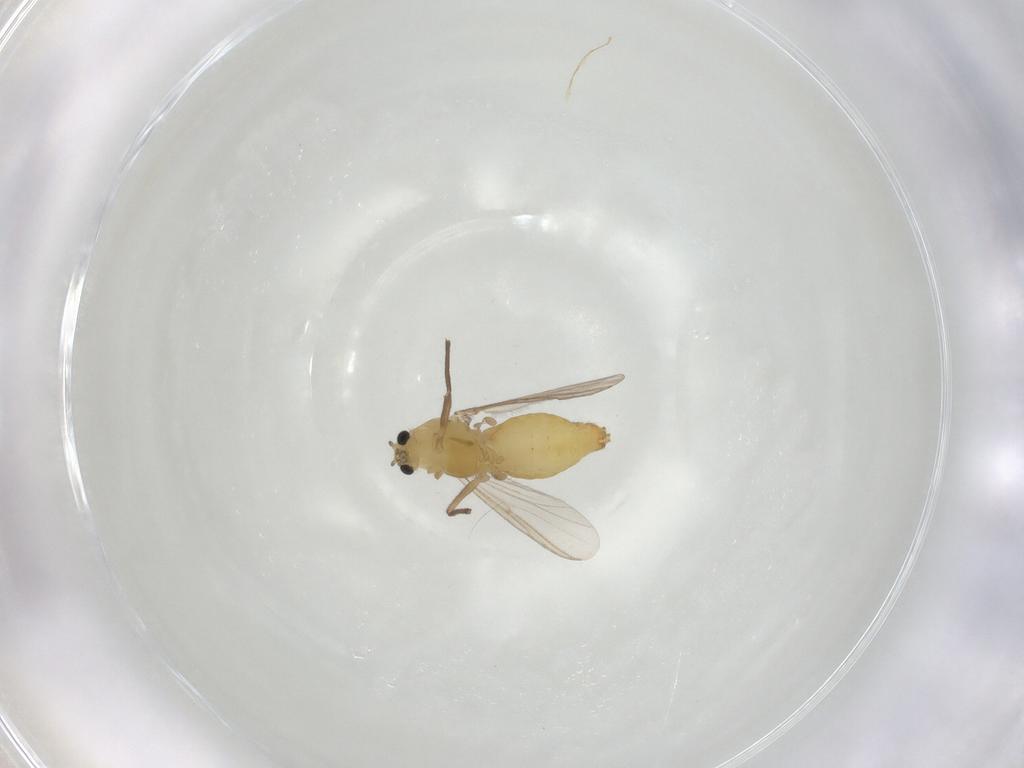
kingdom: Animalia
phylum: Arthropoda
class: Insecta
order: Diptera
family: Chironomidae
